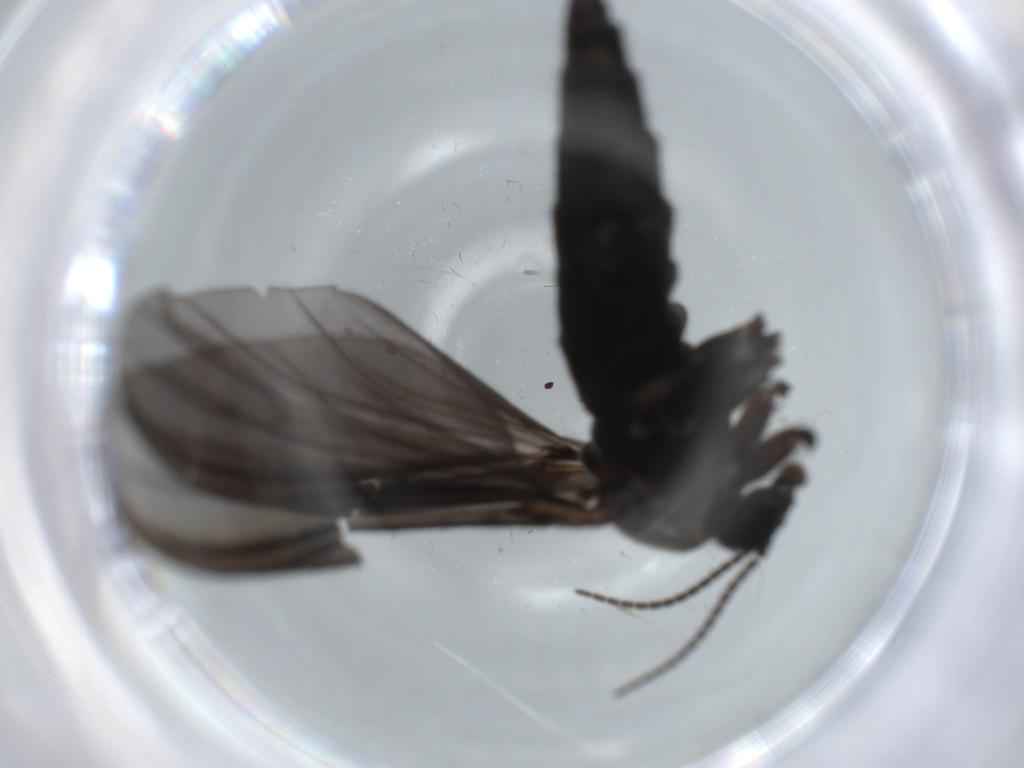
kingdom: Animalia
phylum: Arthropoda
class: Insecta
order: Diptera
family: Sciaridae
